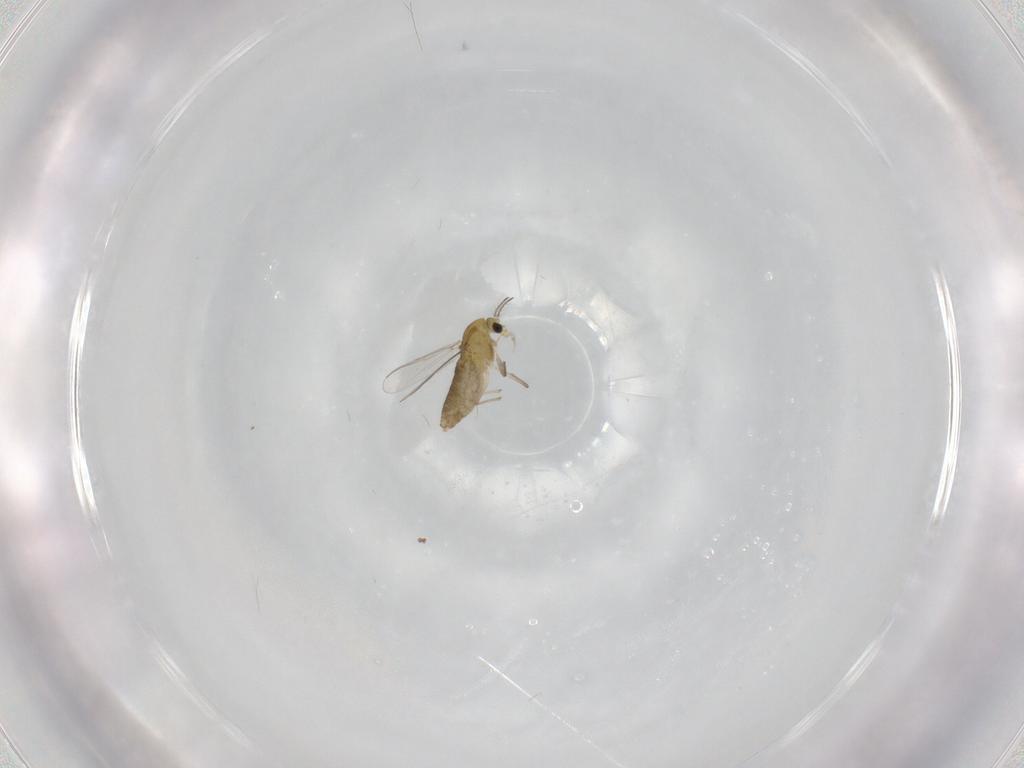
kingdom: Animalia
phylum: Arthropoda
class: Insecta
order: Diptera
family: Chironomidae
